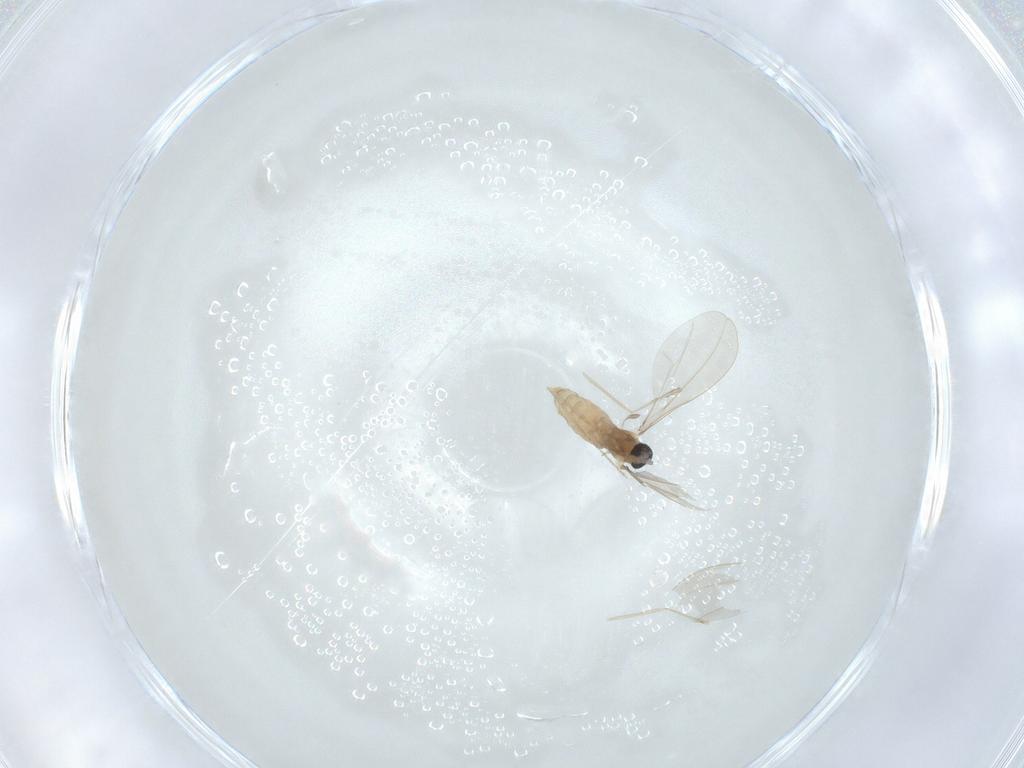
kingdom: Animalia
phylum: Arthropoda
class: Insecta
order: Diptera
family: Cecidomyiidae
